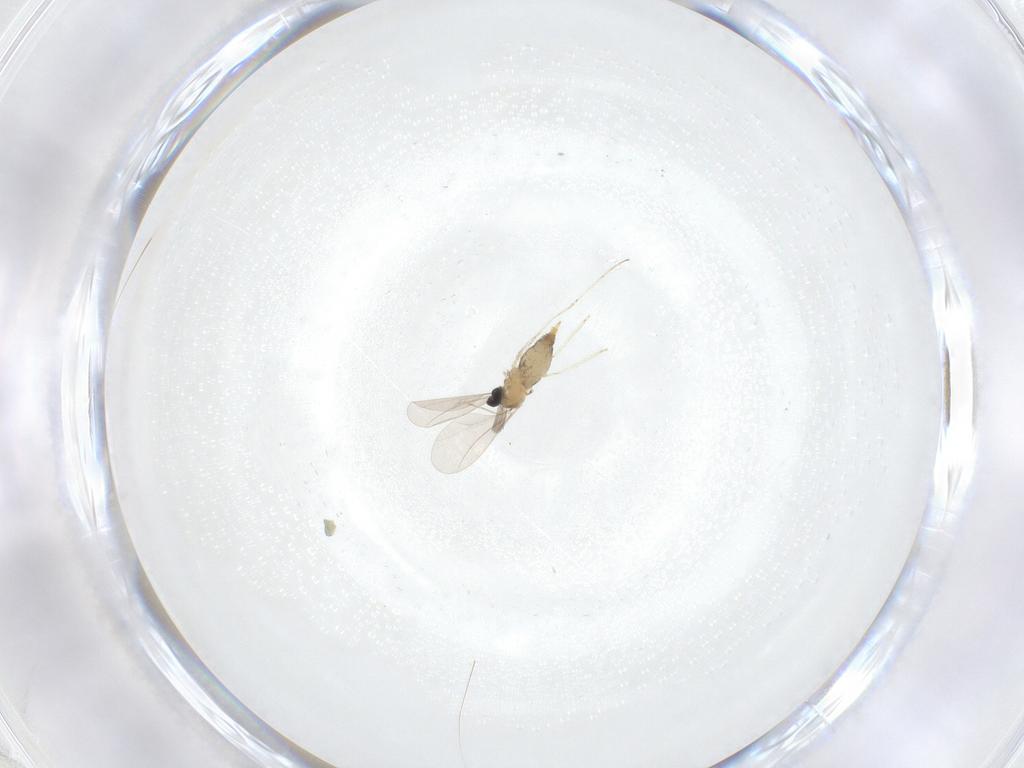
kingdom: Animalia
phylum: Arthropoda
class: Insecta
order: Diptera
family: Cecidomyiidae
